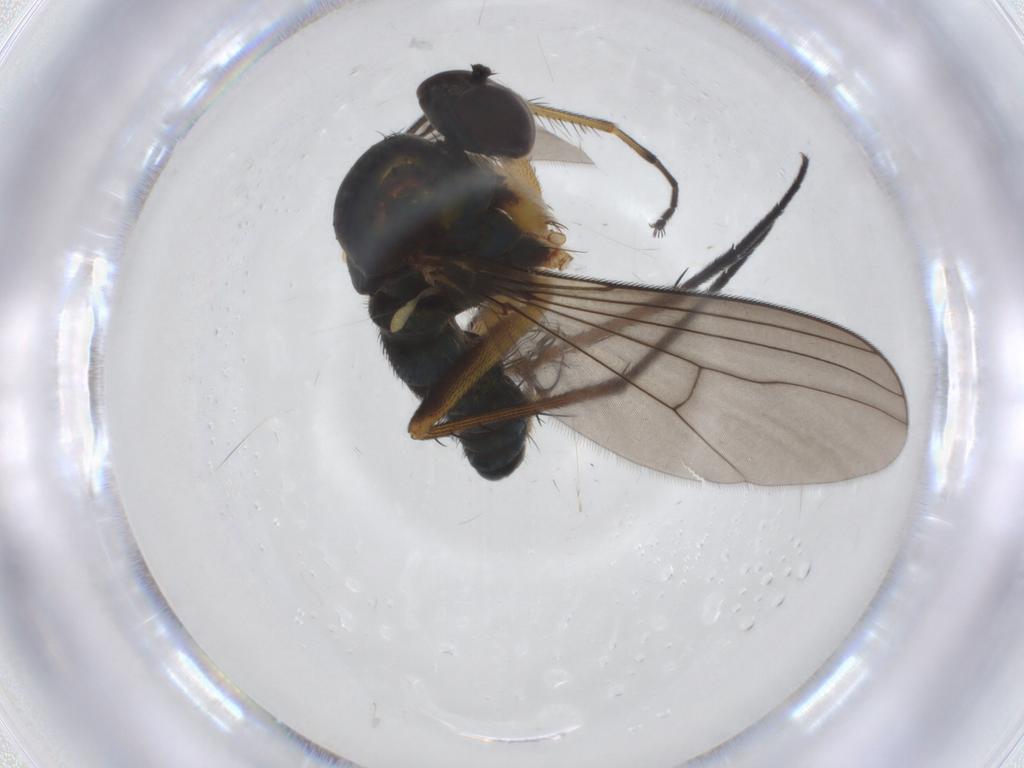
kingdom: Animalia
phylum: Arthropoda
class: Insecta
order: Diptera
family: Dolichopodidae
